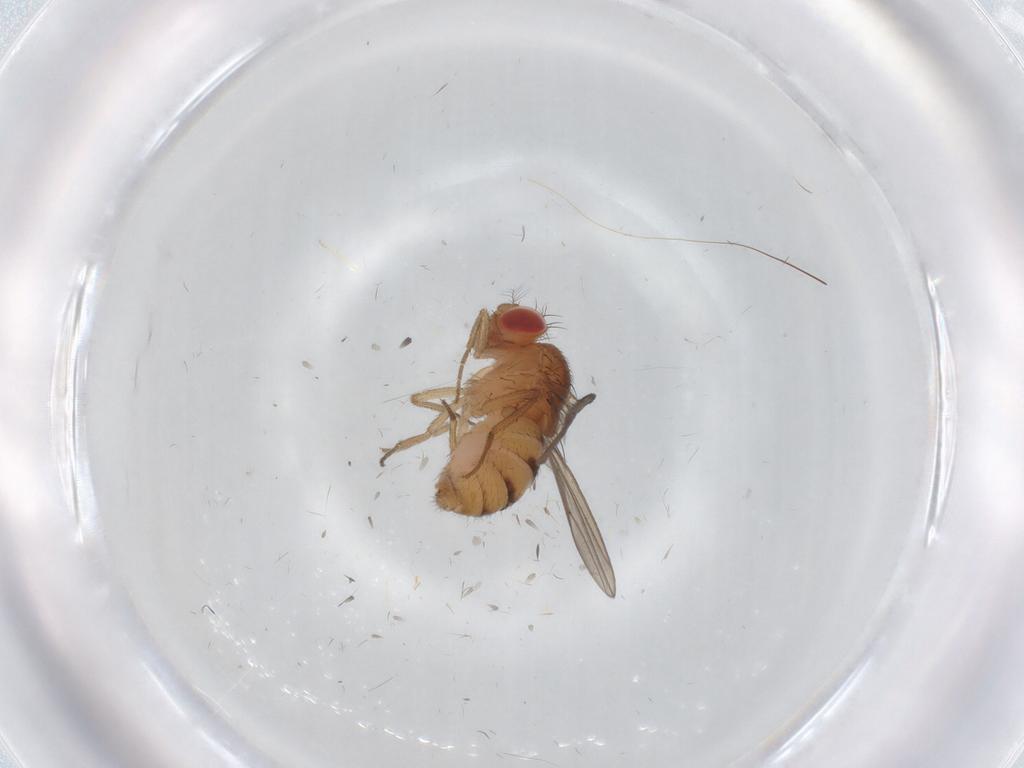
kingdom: Animalia
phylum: Arthropoda
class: Insecta
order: Diptera
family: Drosophilidae
